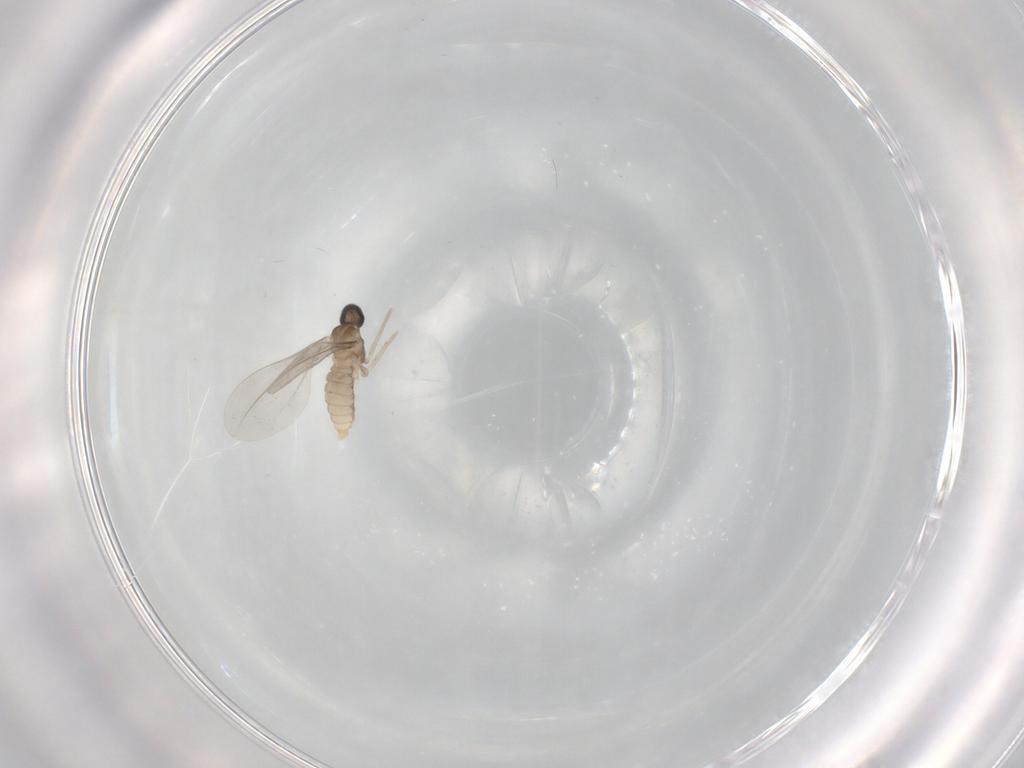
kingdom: Animalia
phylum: Arthropoda
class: Insecta
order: Diptera
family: Cecidomyiidae
